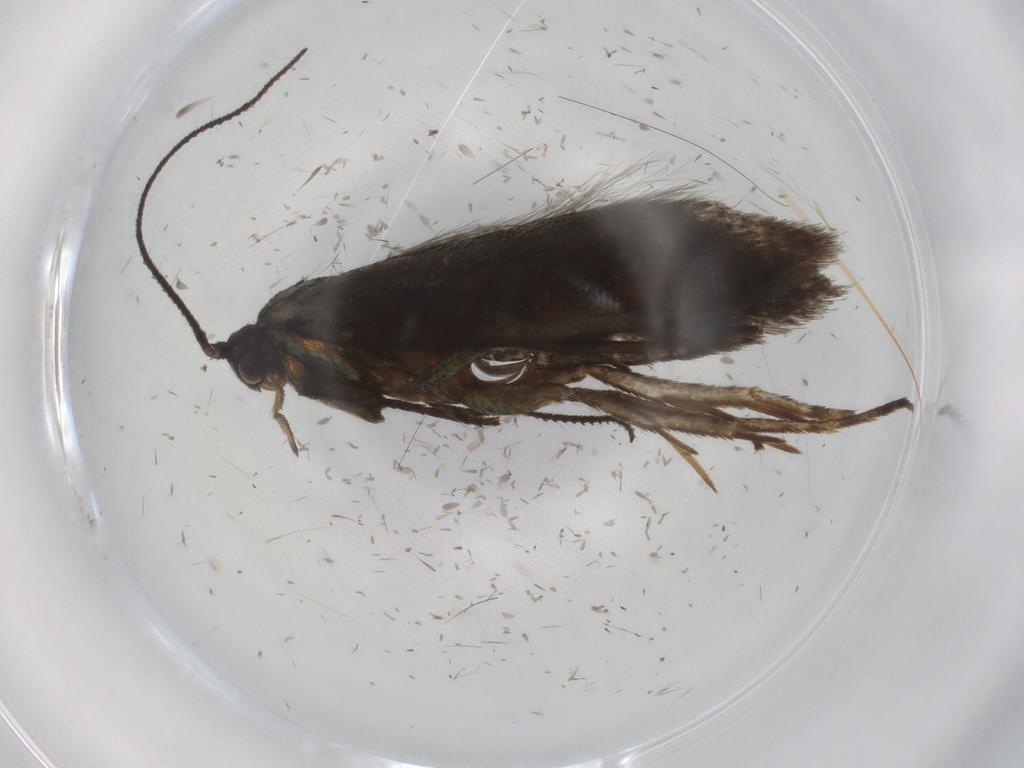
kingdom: Animalia
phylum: Arthropoda
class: Insecta
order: Lepidoptera
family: Argyresthiidae
